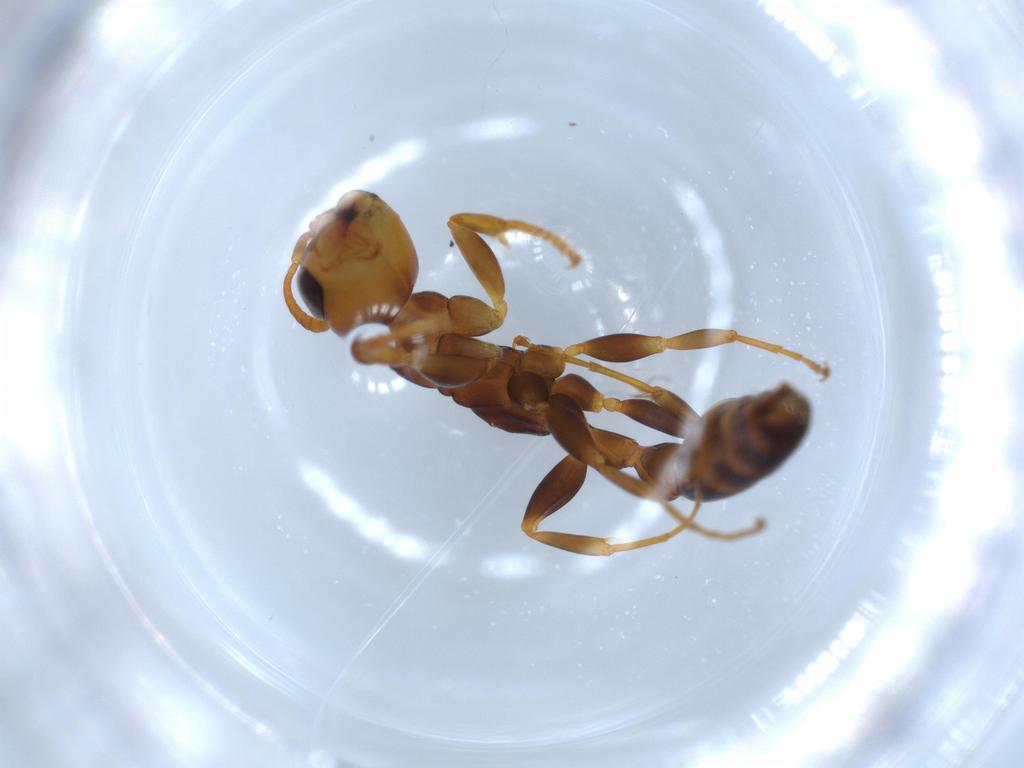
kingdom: Animalia
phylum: Arthropoda
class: Insecta
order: Hymenoptera
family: Formicidae
